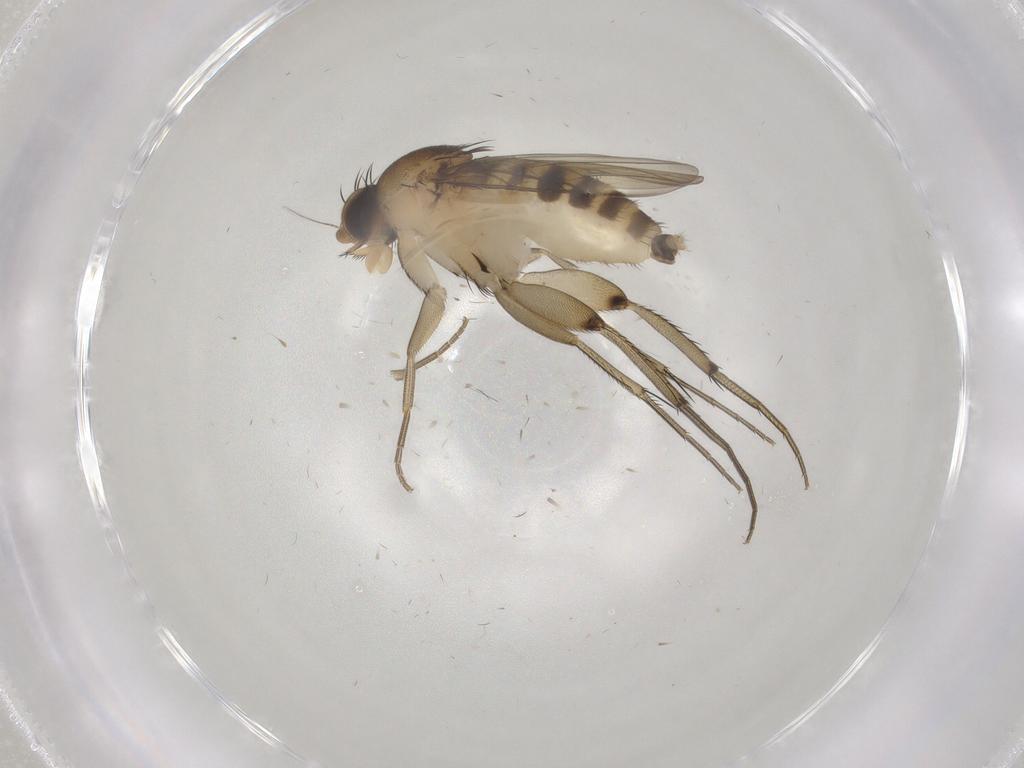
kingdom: Animalia
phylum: Arthropoda
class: Insecta
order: Diptera
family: Phoridae
